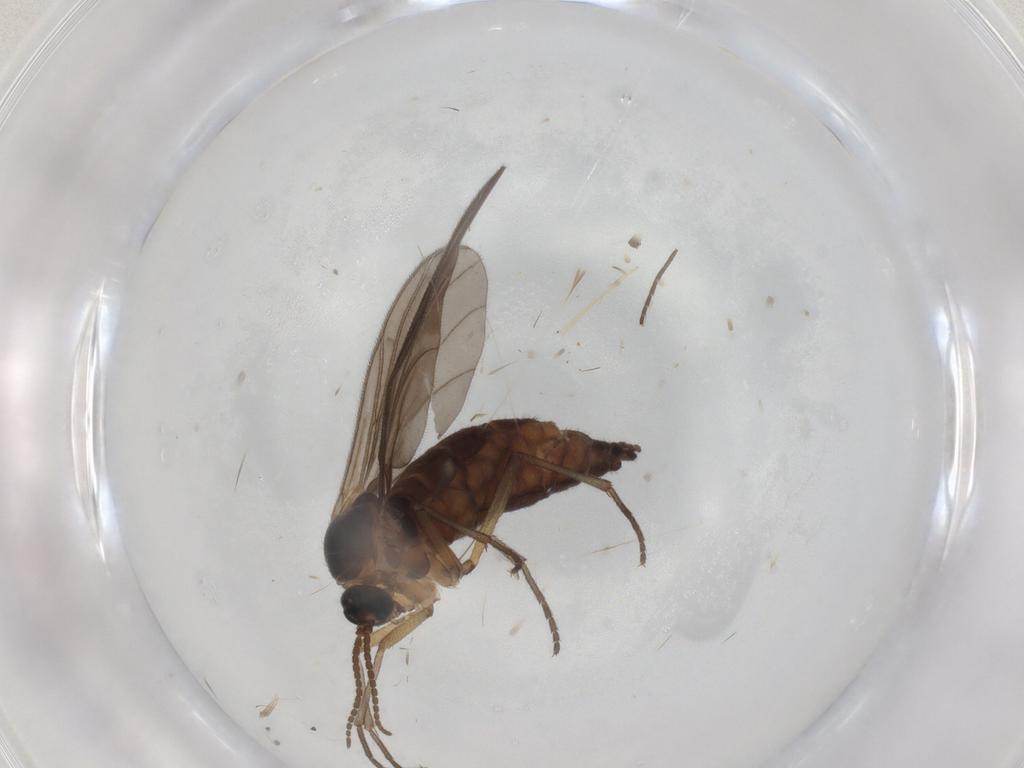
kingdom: Animalia
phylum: Arthropoda
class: Insecta
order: Diptera
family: Sciaridae
